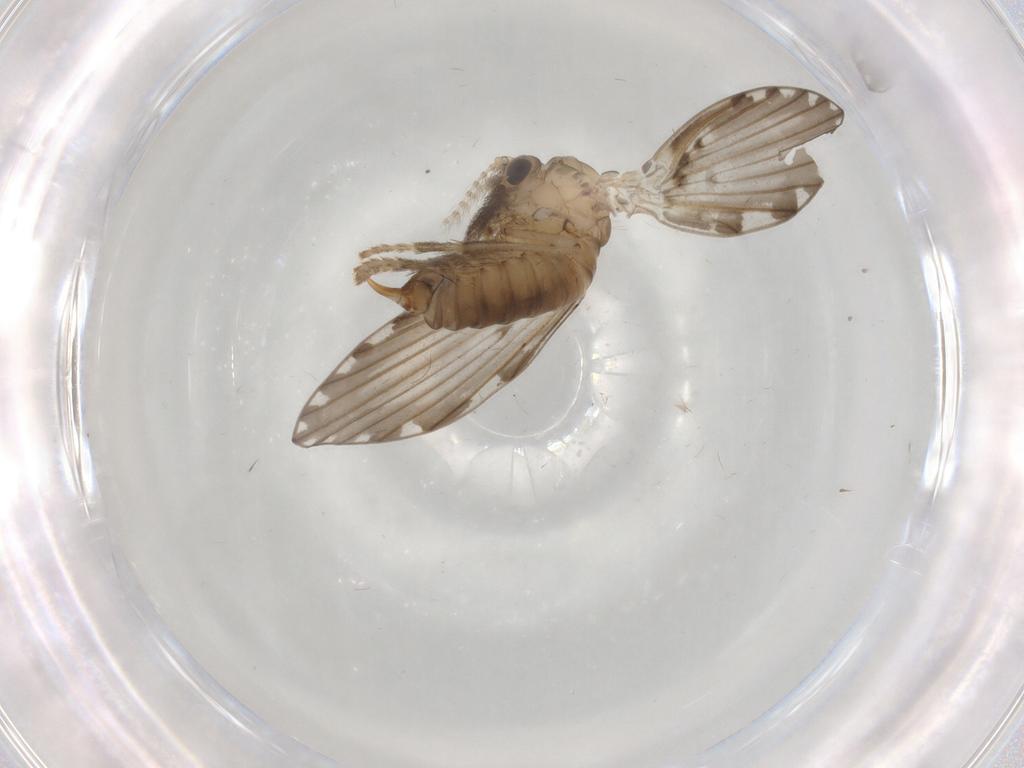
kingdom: Animalia
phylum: Arthropoda
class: Insecta
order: Diptera
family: Psychodidae
